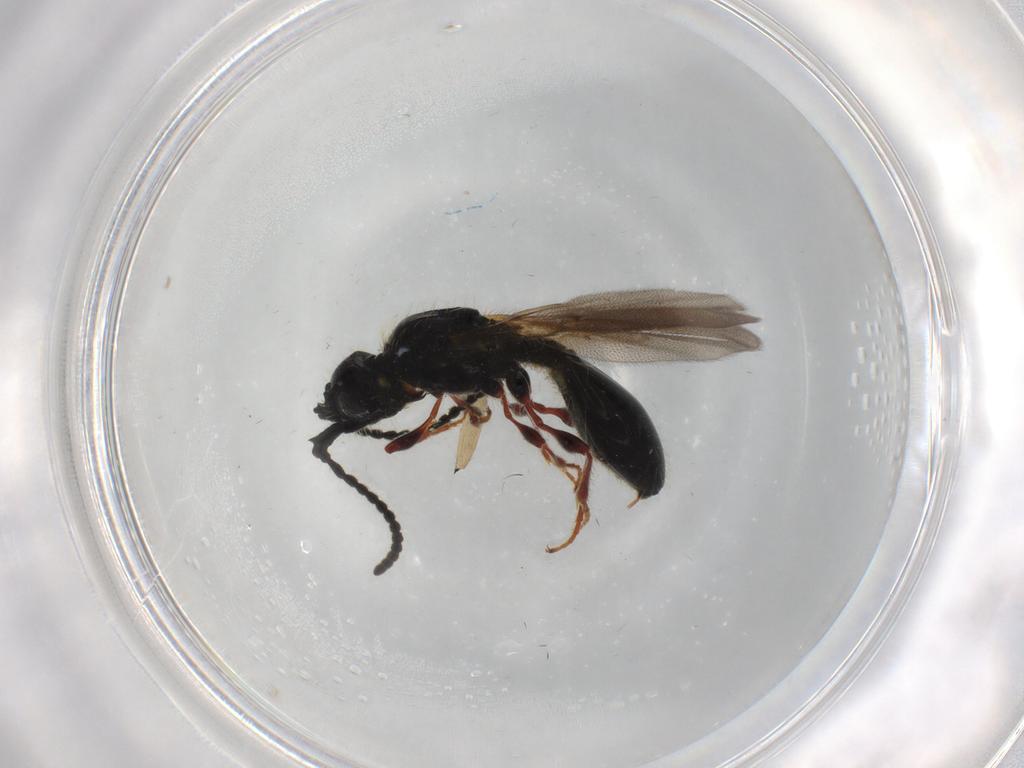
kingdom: Animalia
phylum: Arthropoda
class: Insecta
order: Hymenoptera
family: Diapriidae
